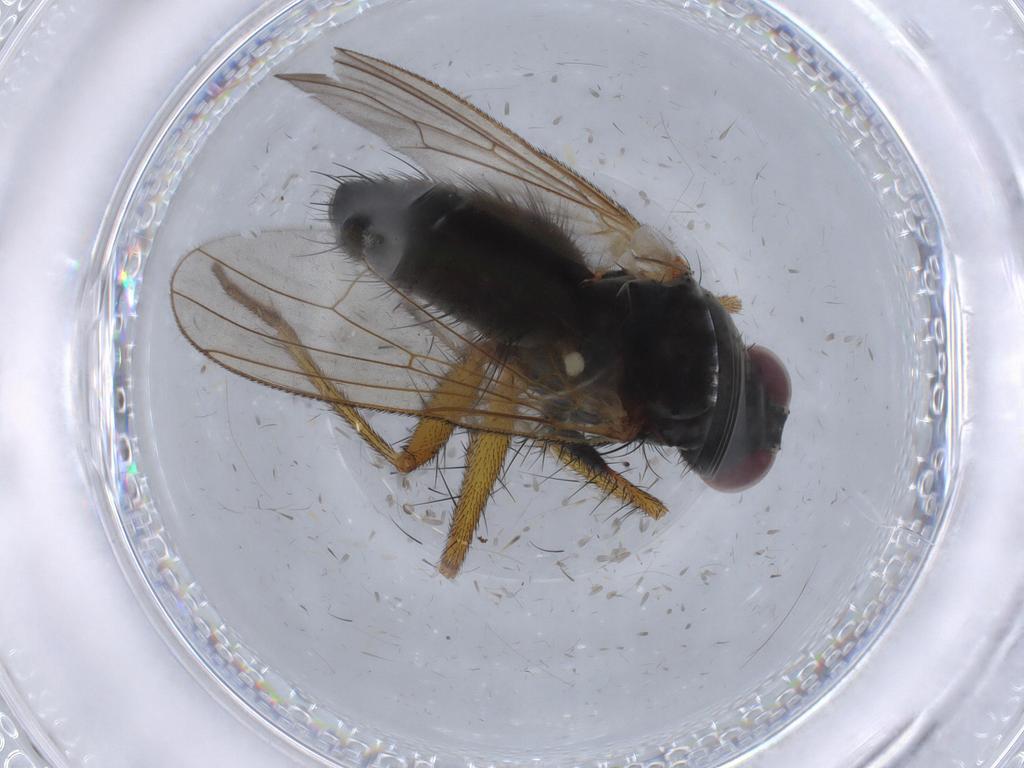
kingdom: Animalia
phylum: Arthropoda
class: Insecta
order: Diptera
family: Muscidae
